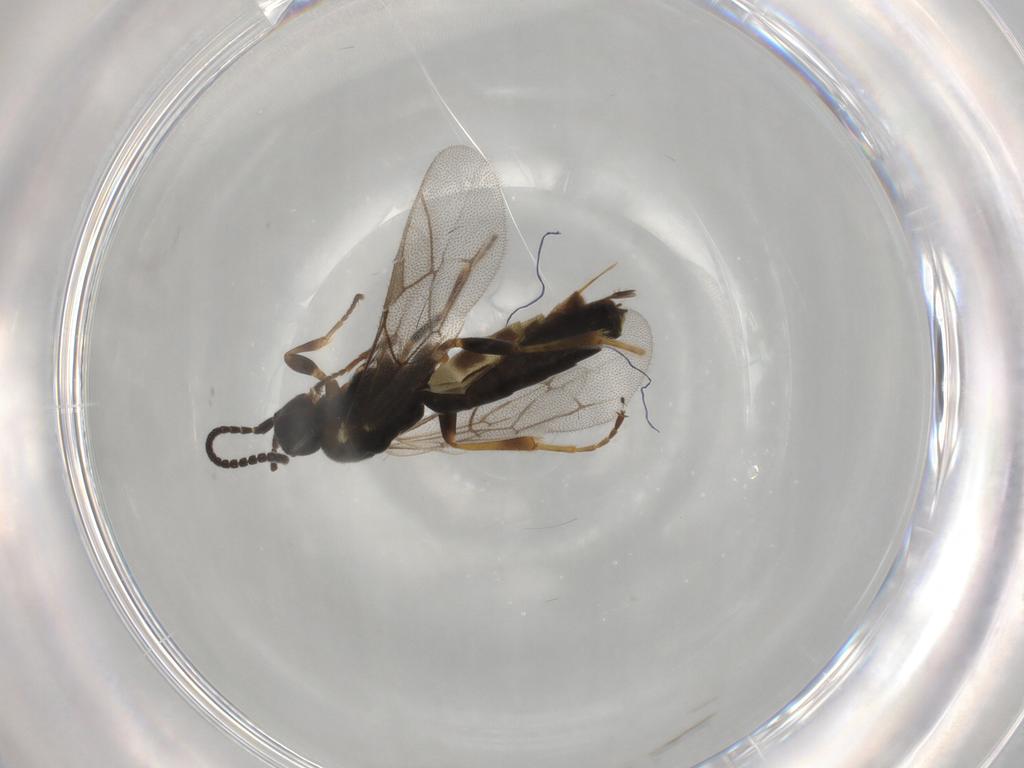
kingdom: Animalia
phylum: Arthropoda
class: Insecta
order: Hymenoptera
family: Ichneumonidae
